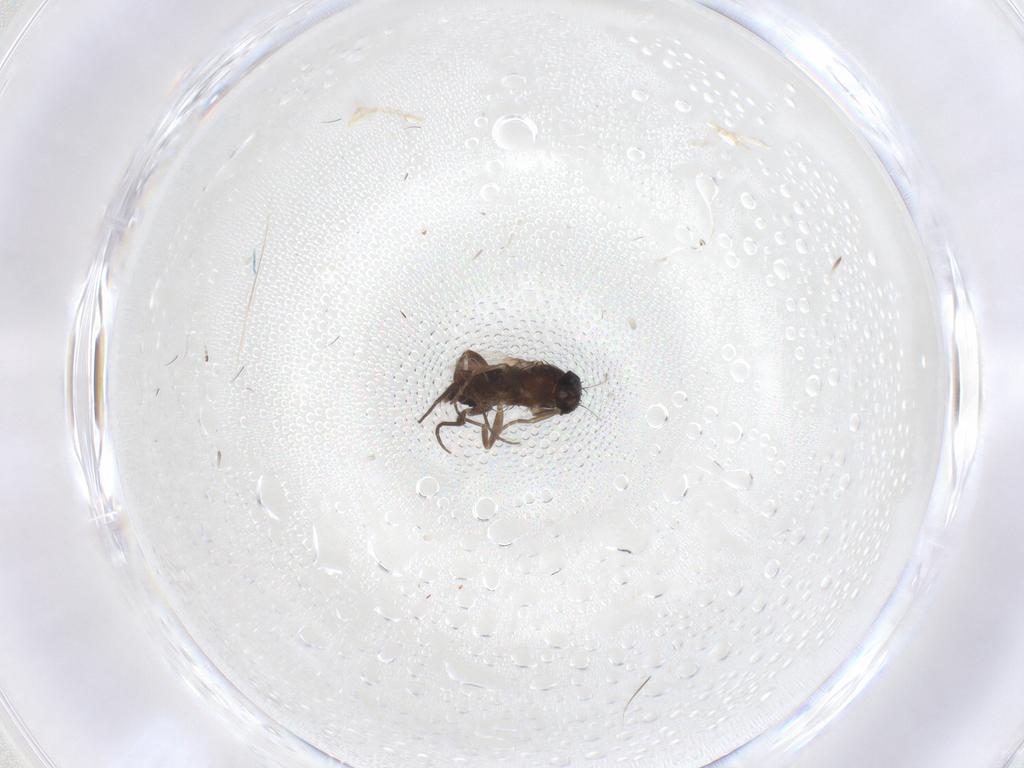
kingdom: Animalia
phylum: Arthropoda
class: Insecta
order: Diptera
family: Phoridae
